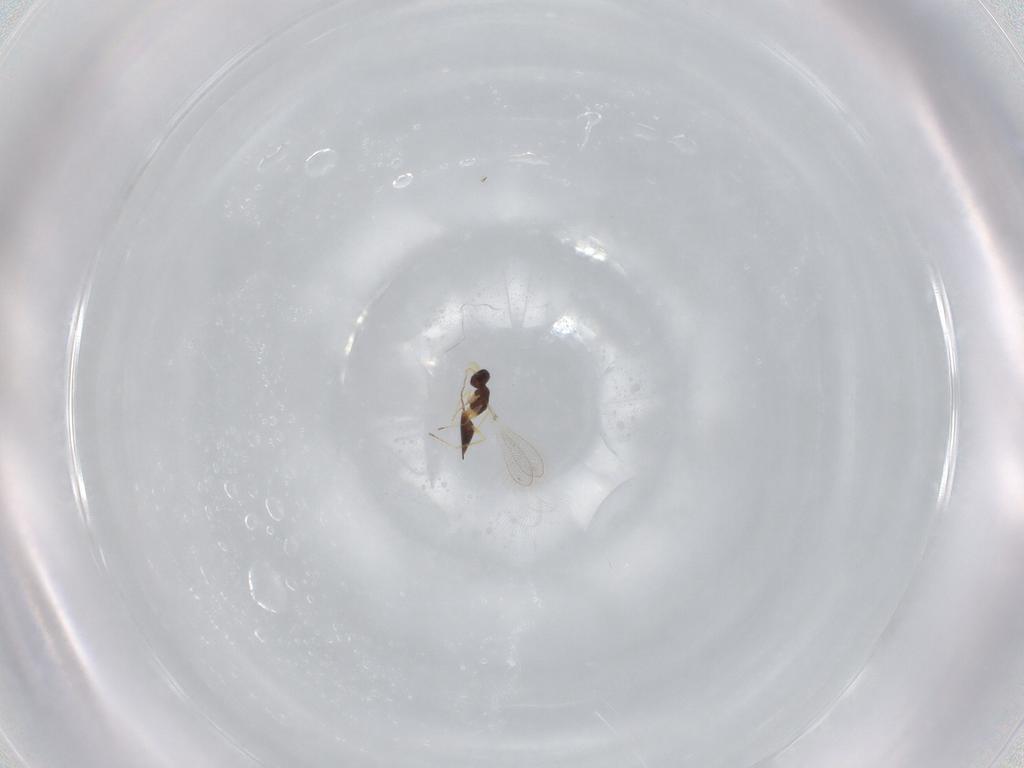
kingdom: Animalia
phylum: Arthropoda
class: Insecta
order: Hymenoptera
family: Mymaridae
